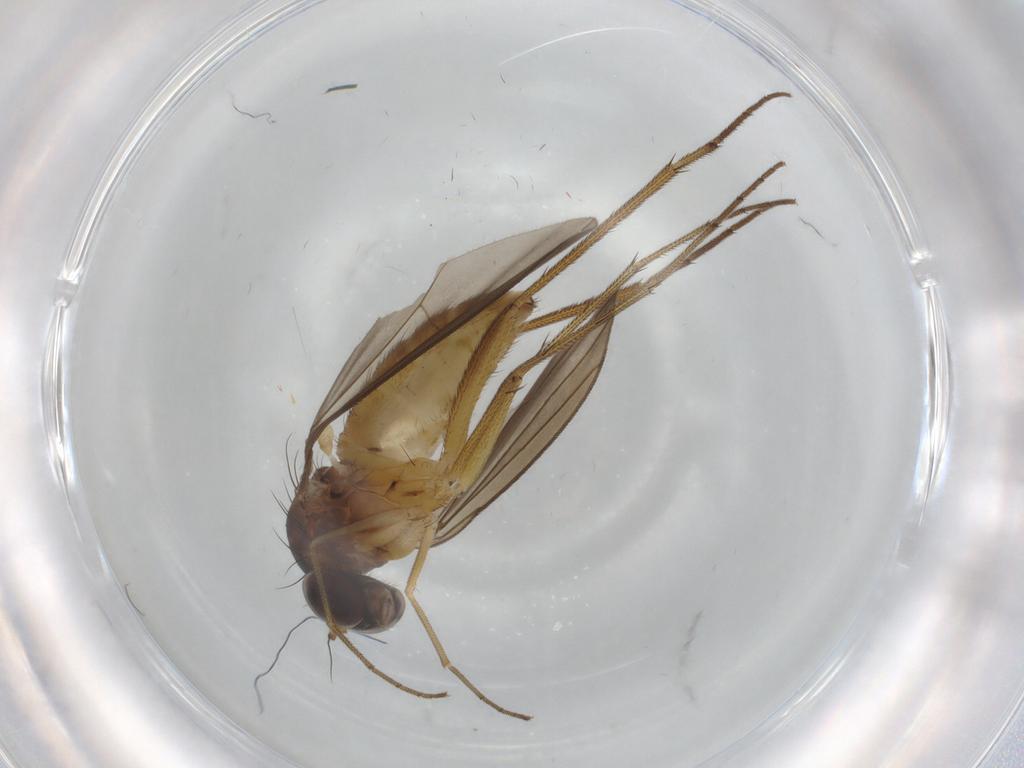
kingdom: Animalia
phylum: Arthropoda
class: Insecta
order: Diptera
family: Dolichopodidae
